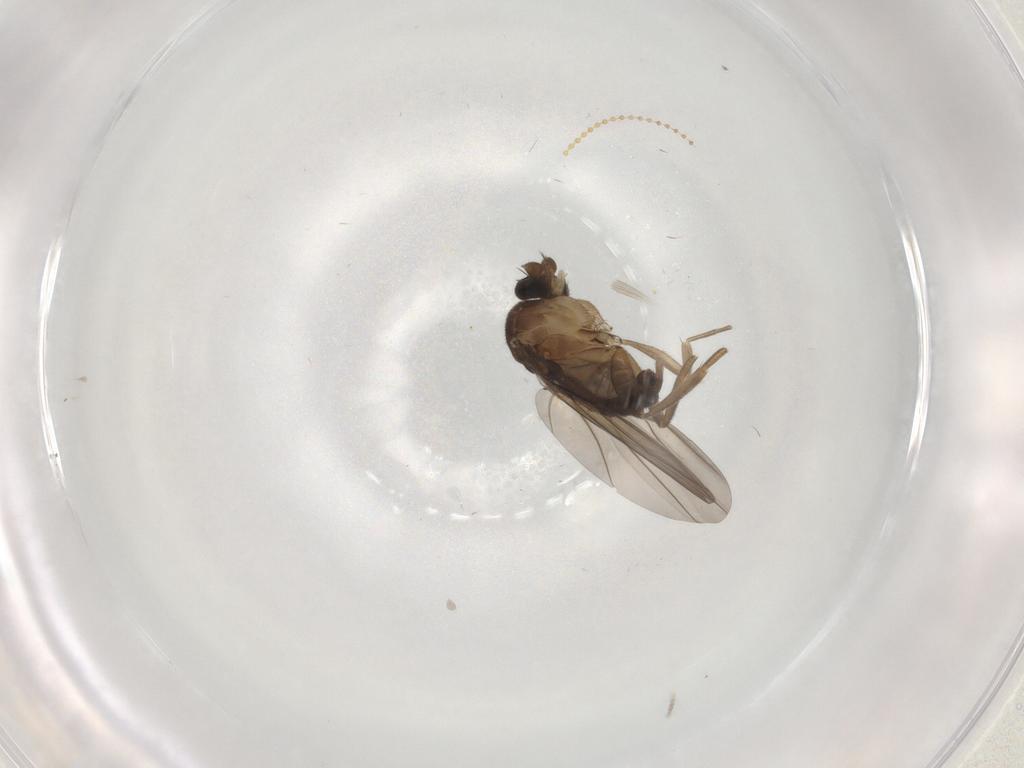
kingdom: Animalia
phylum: Arthropoda
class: Insecta
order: Diptera
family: Phoridae
